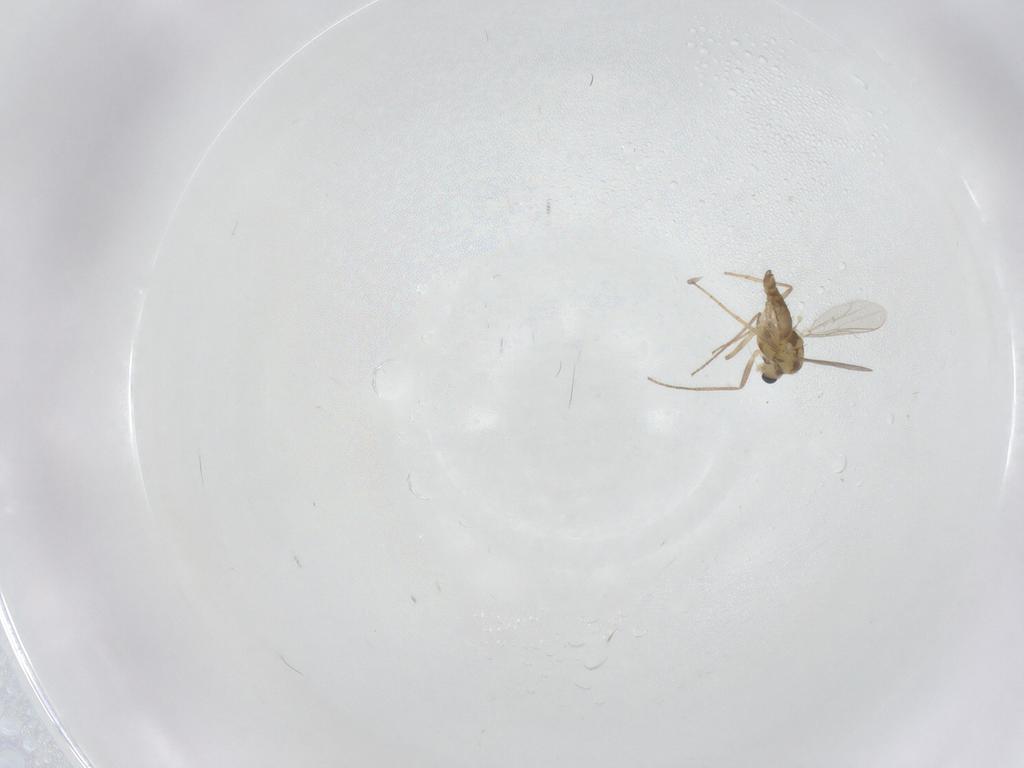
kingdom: Animalia
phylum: Arthropoda
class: Insecta
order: Diptera
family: Chironomidae
